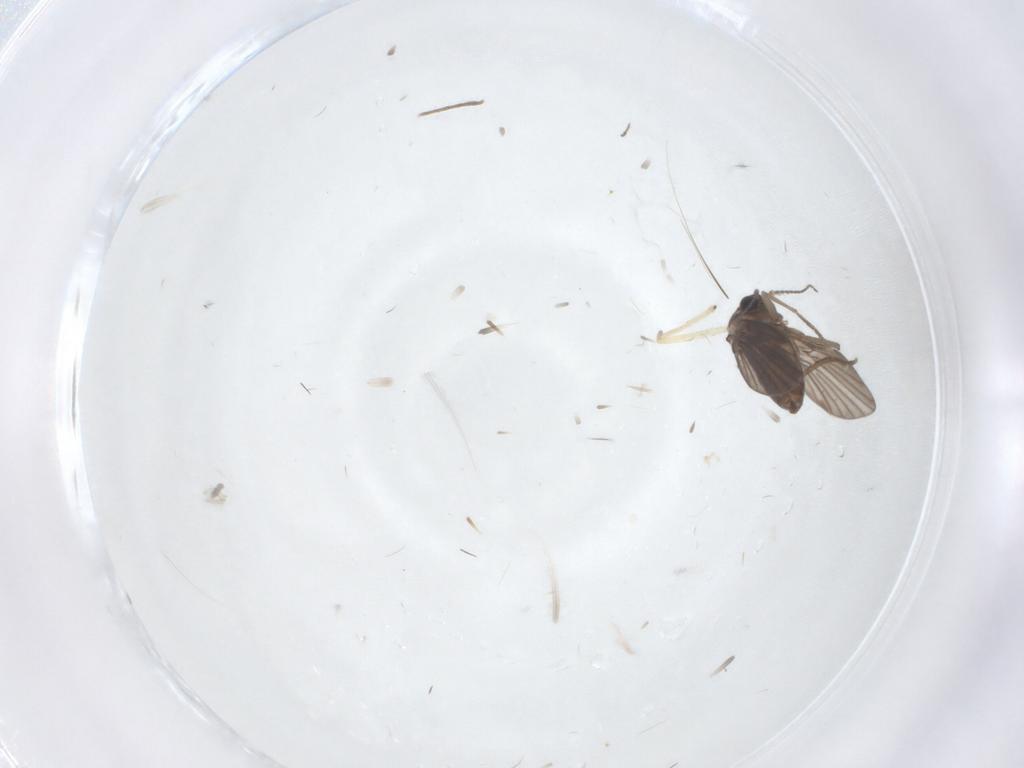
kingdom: Animalia
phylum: Arthropoda
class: Insecta
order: Diptera
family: Chironomidae
